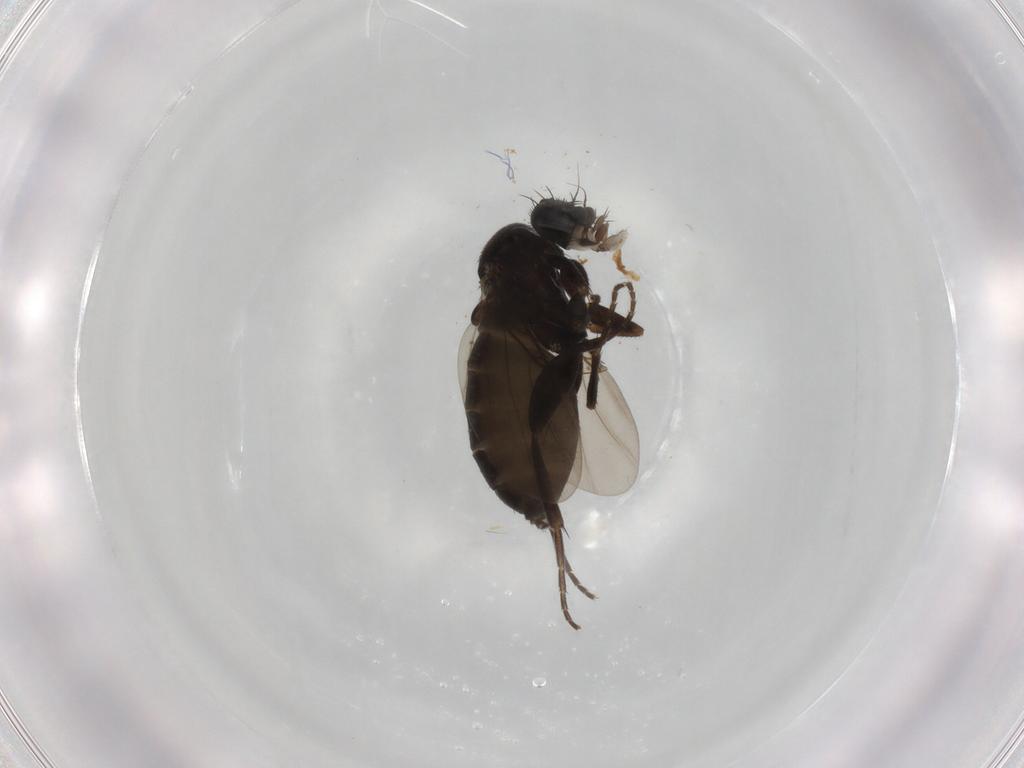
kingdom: Animalia
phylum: Arthropoda
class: Insecta
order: Diptera
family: Phoridae
